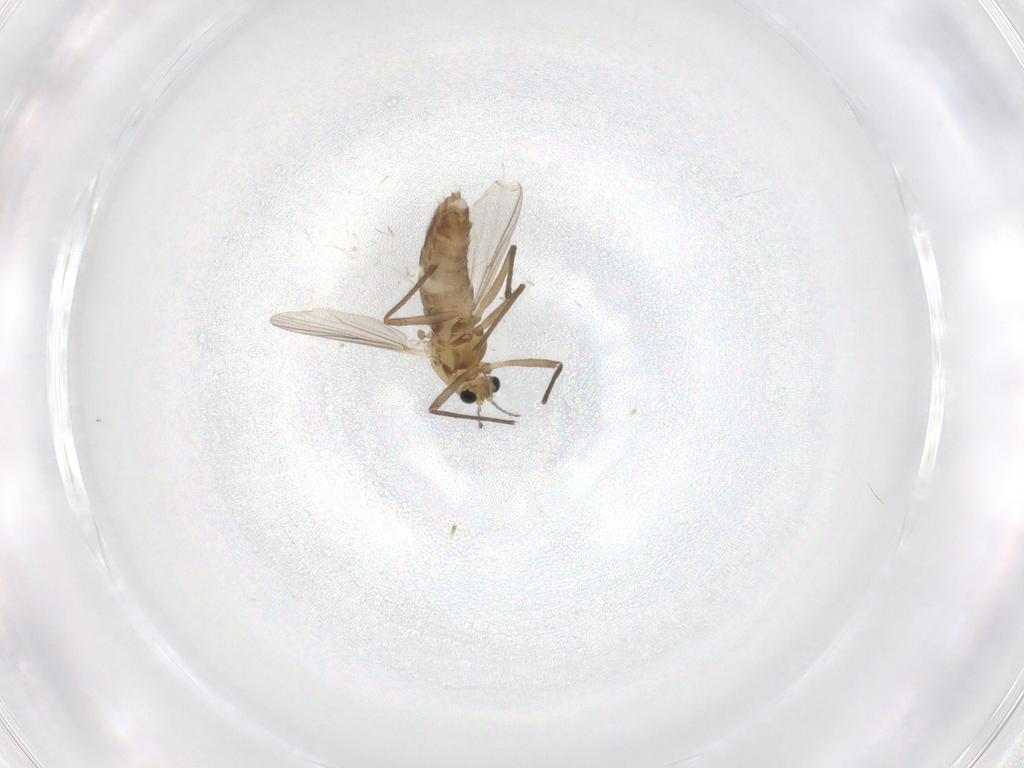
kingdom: Animalia
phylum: Arthropoda
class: Insecta
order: Diptera
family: Chironomidae
